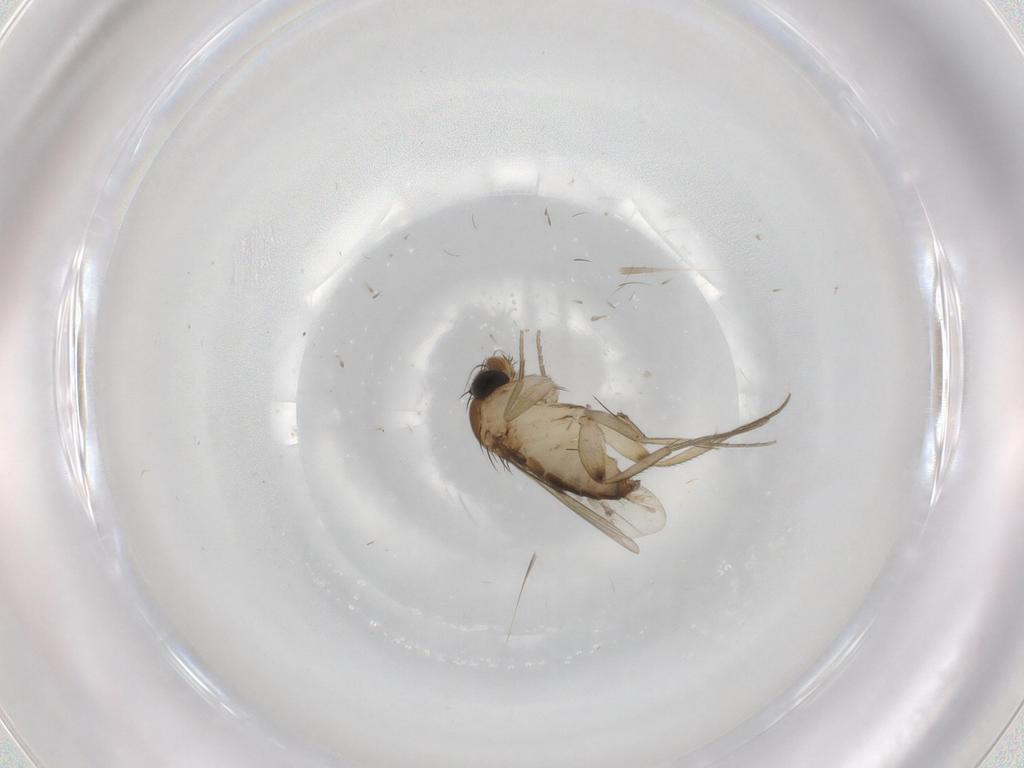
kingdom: Animalia
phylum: Arthropoda
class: Insecta
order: Diptera
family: Phoridae
